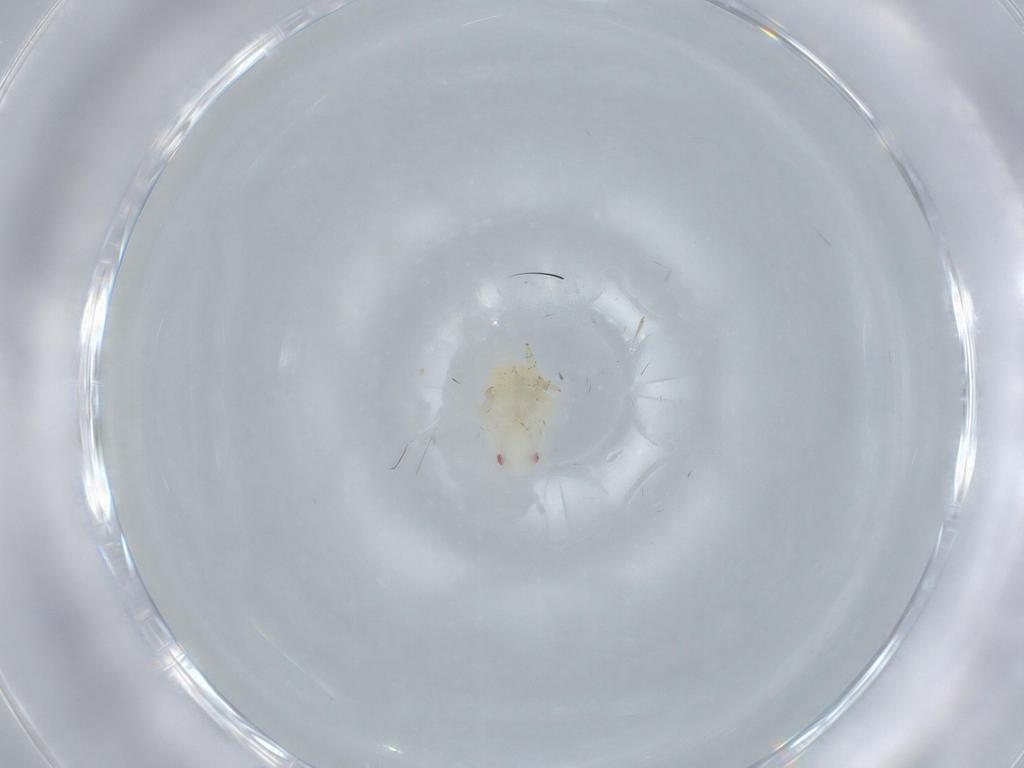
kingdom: Animalia
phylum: Arthropoda
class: Insecta
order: Hemiptera
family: Flatidae
